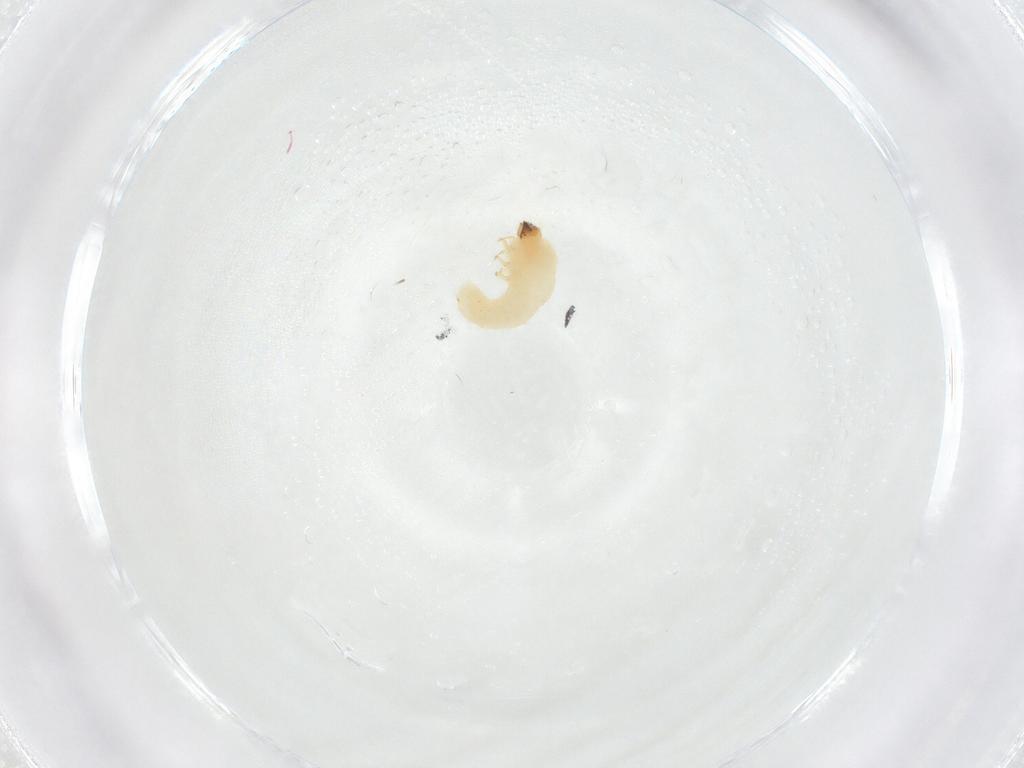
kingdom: Animalia
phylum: Arthropoda
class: Insecta
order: Coleoptera
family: Bostrichidae
